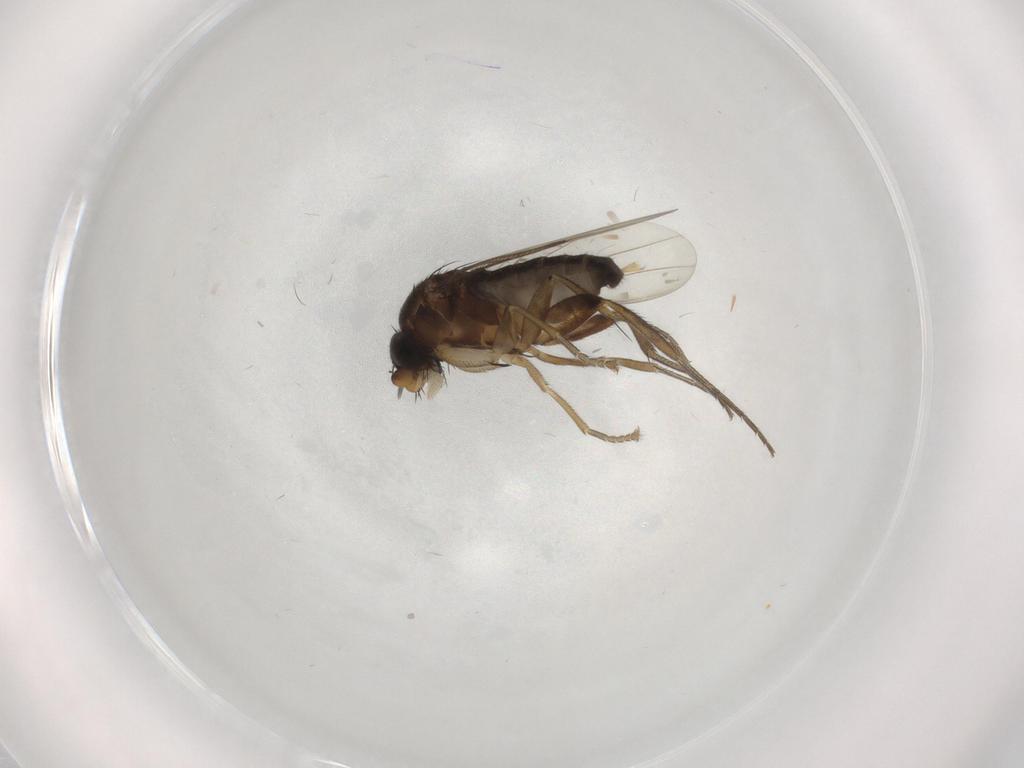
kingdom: Animalia
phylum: Arthropoda
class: Insecta
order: Diptera
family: Phoridae
